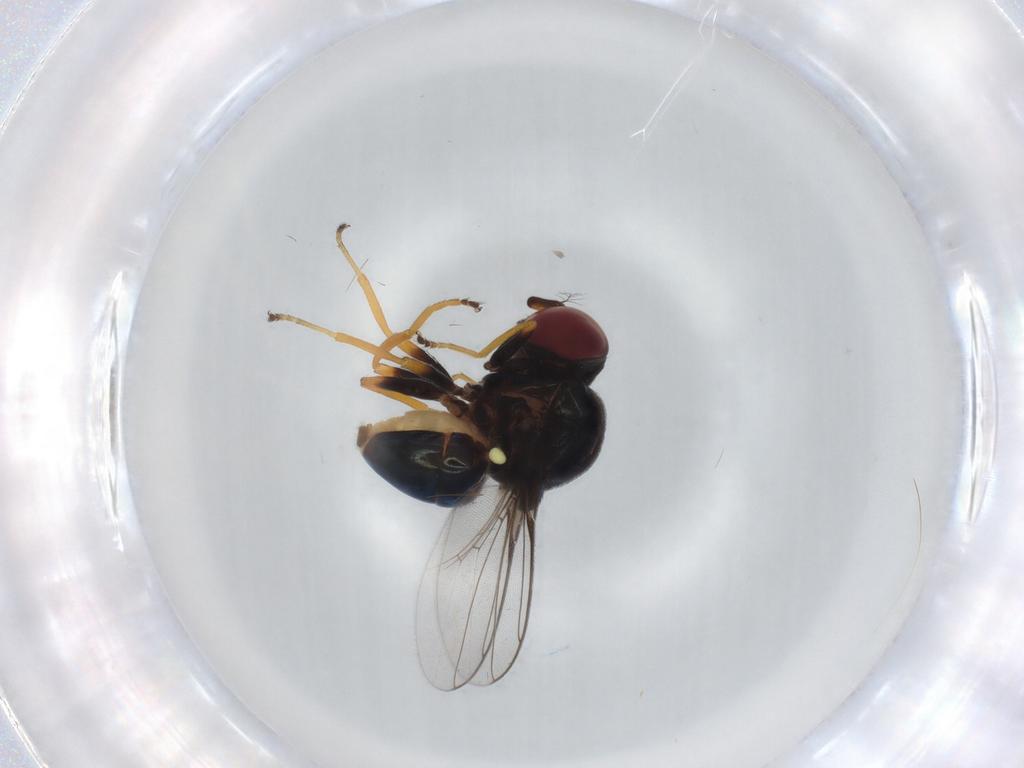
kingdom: Animalia
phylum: Arthropoda
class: Insecta
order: Diptera
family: Chloropidae
